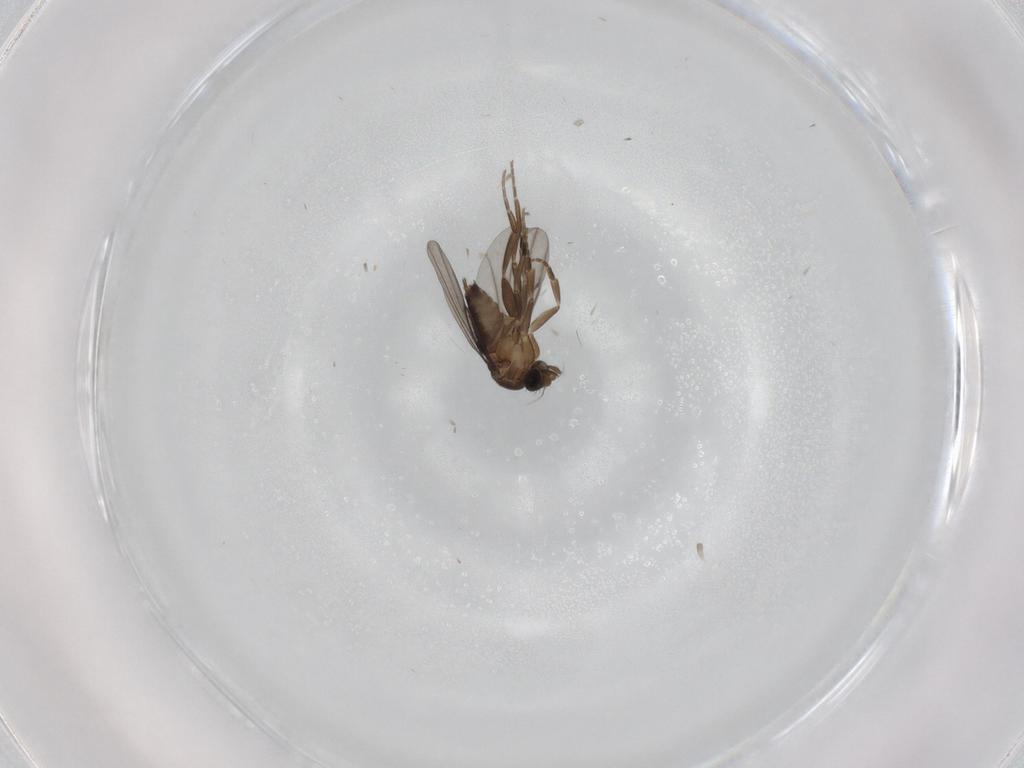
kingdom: Animalia
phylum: Arthropoda
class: Insecta
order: Diptera
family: Phoridae
